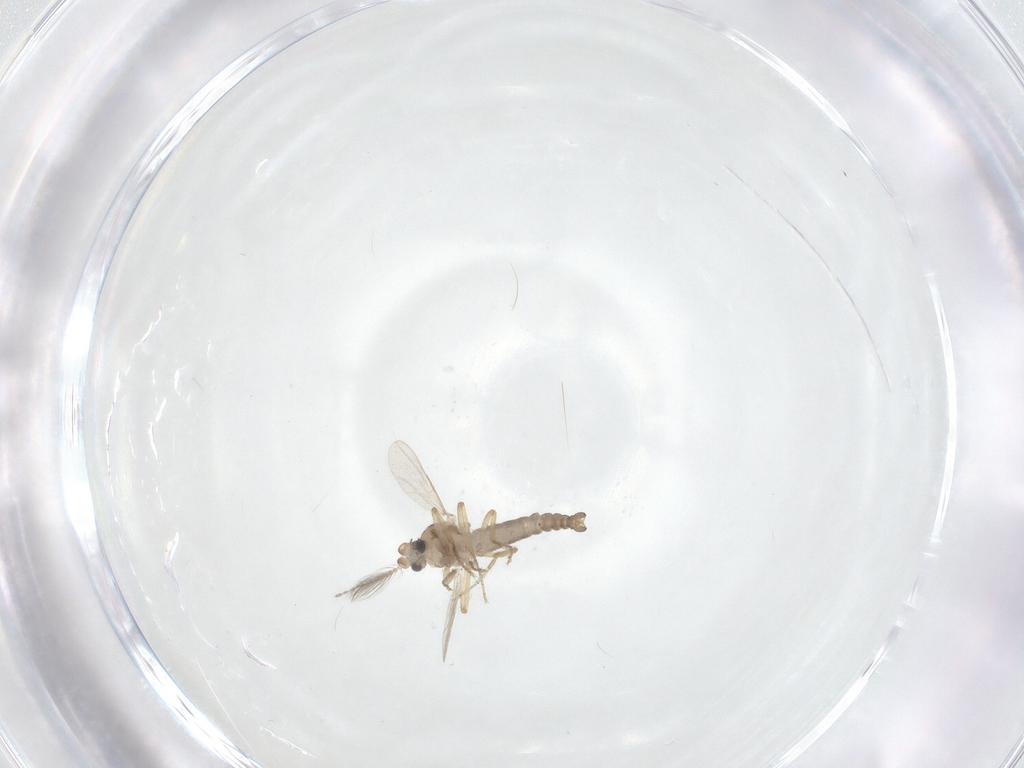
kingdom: Animalia
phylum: Arthropoda
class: Insecta
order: Diptera
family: Ceratopogonidae
